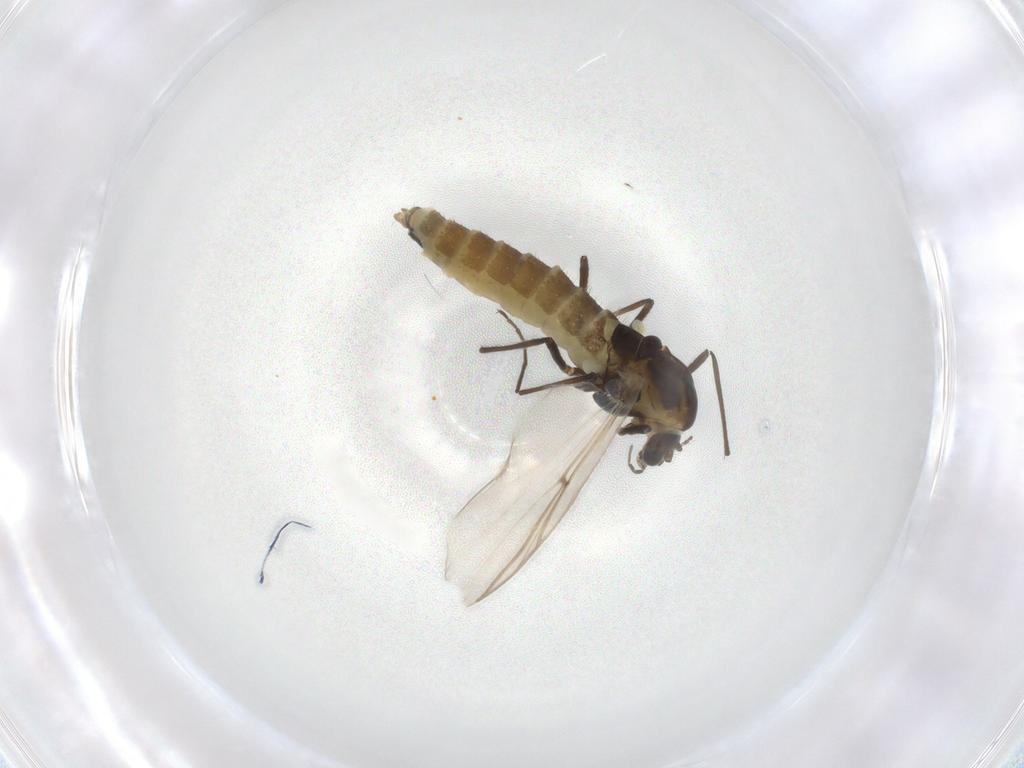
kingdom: Animalia
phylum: Arthropoda
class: Insecta
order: Diptera
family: Chironomidae
